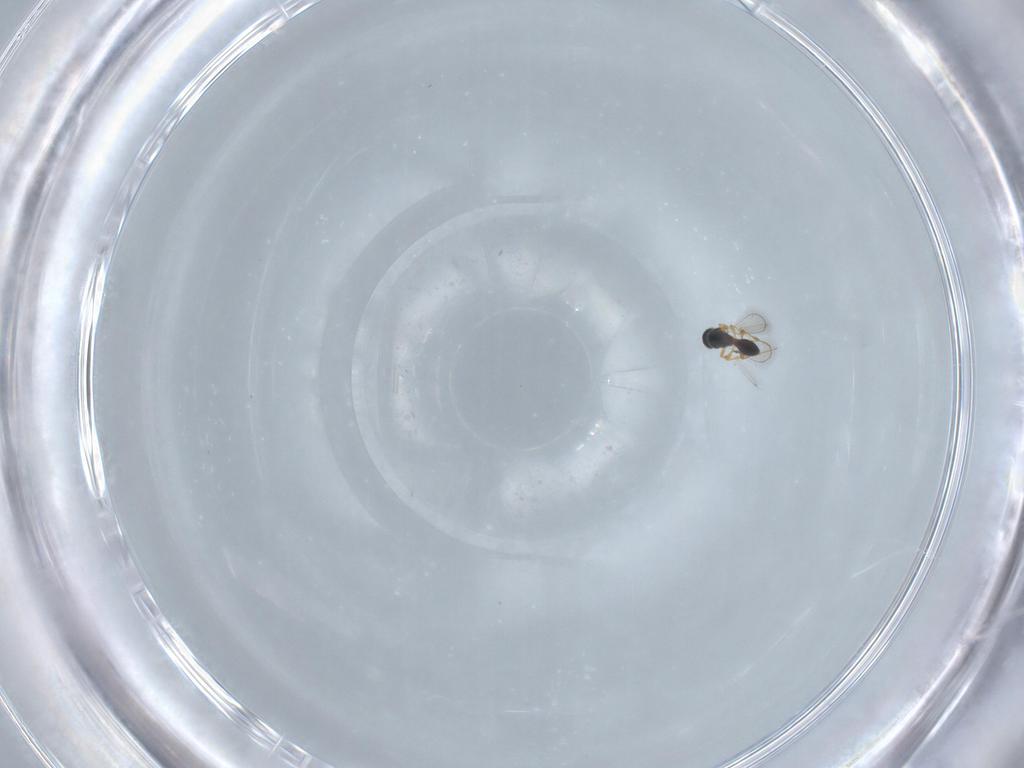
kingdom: Animalia
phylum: Arthropoda
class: Insecta
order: Hymenoptera
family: Platygastridae
